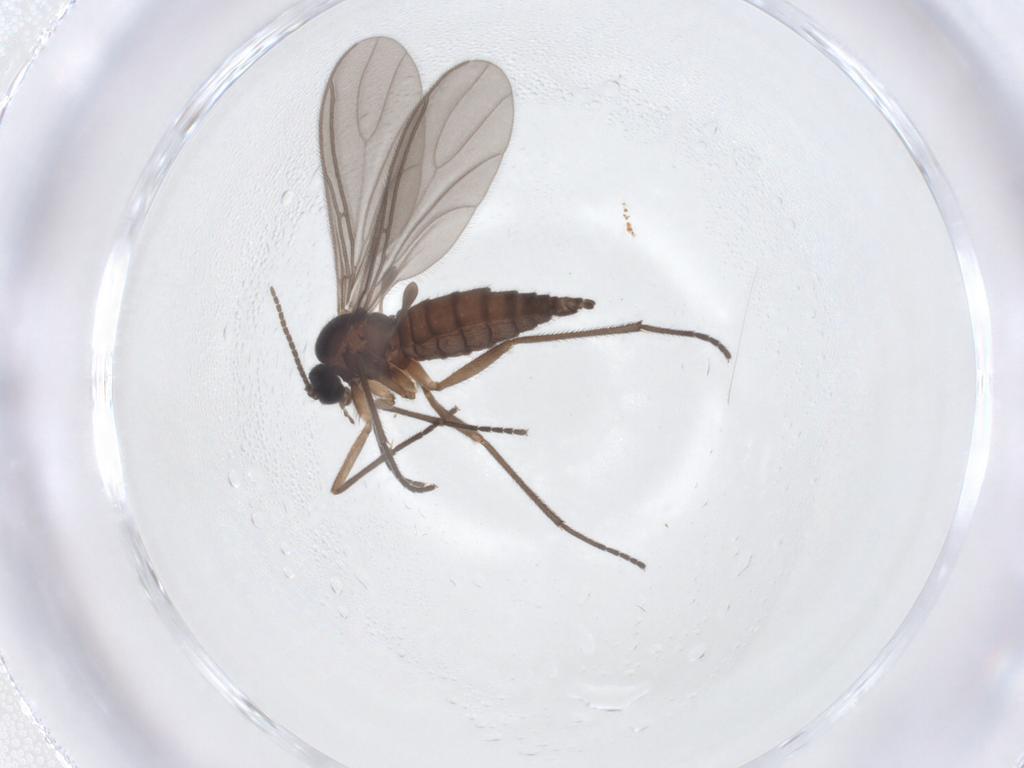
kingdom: Animalia
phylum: Arthropoda
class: Insecta
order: Diptera
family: Sciaridae
